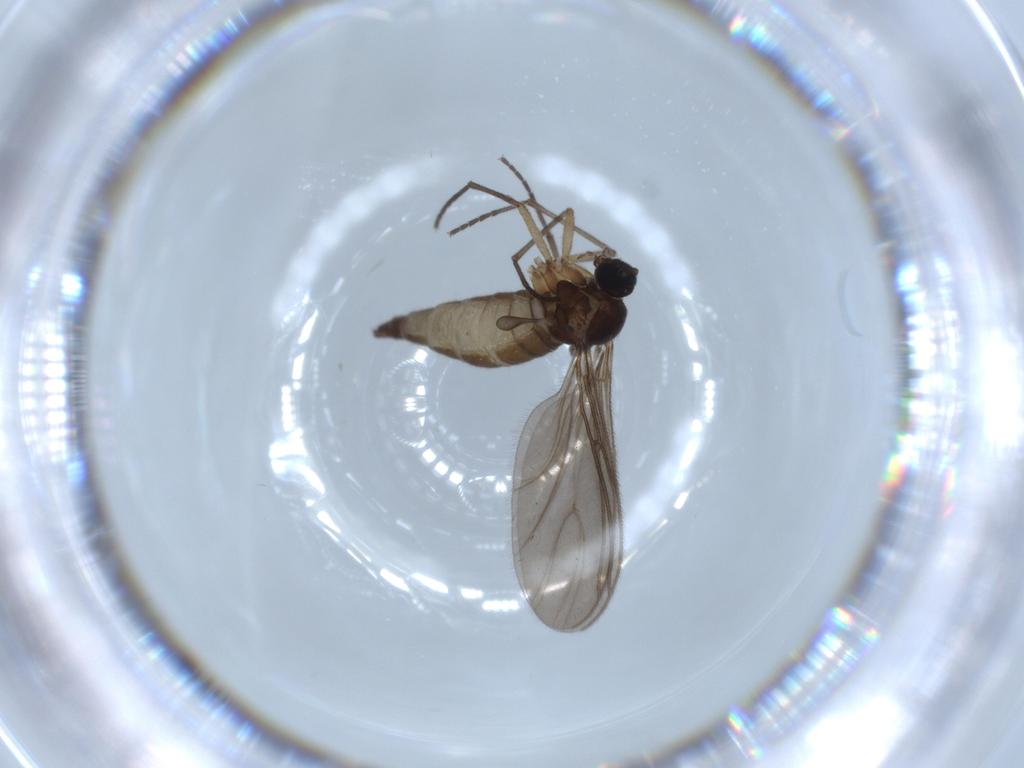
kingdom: Animalia
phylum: Arthropoda
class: Insecta
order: Diptera
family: Sciaridae
